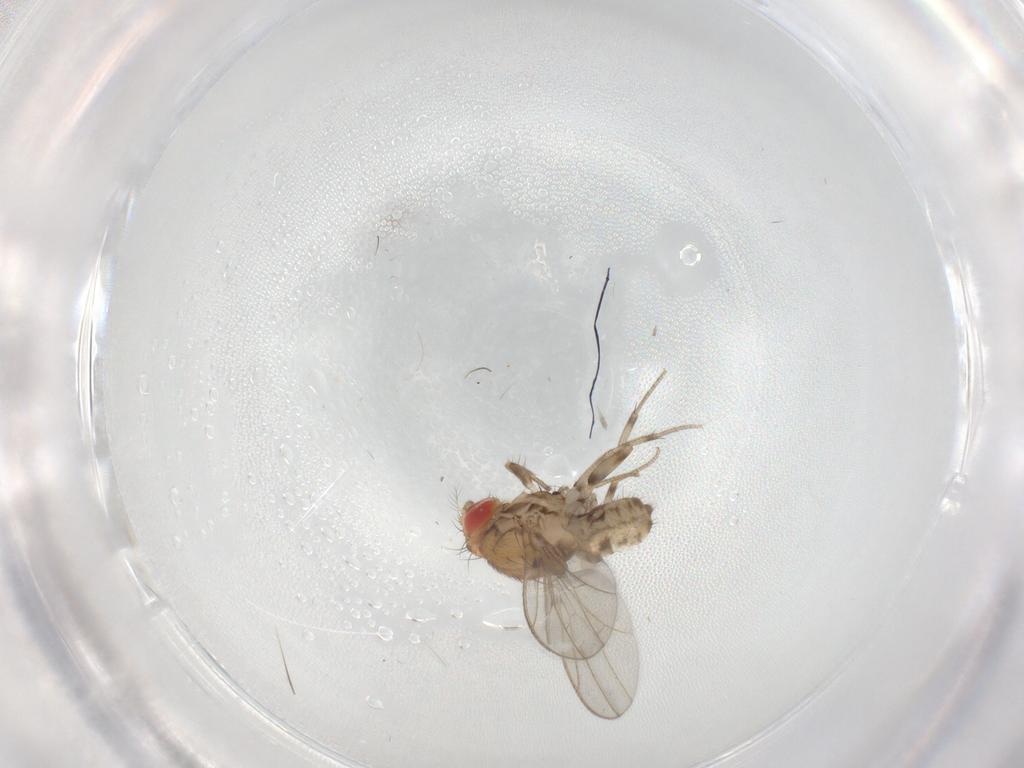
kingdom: Animalia
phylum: Arthropoda
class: Insecta
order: Diptera
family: Drosophilidae
